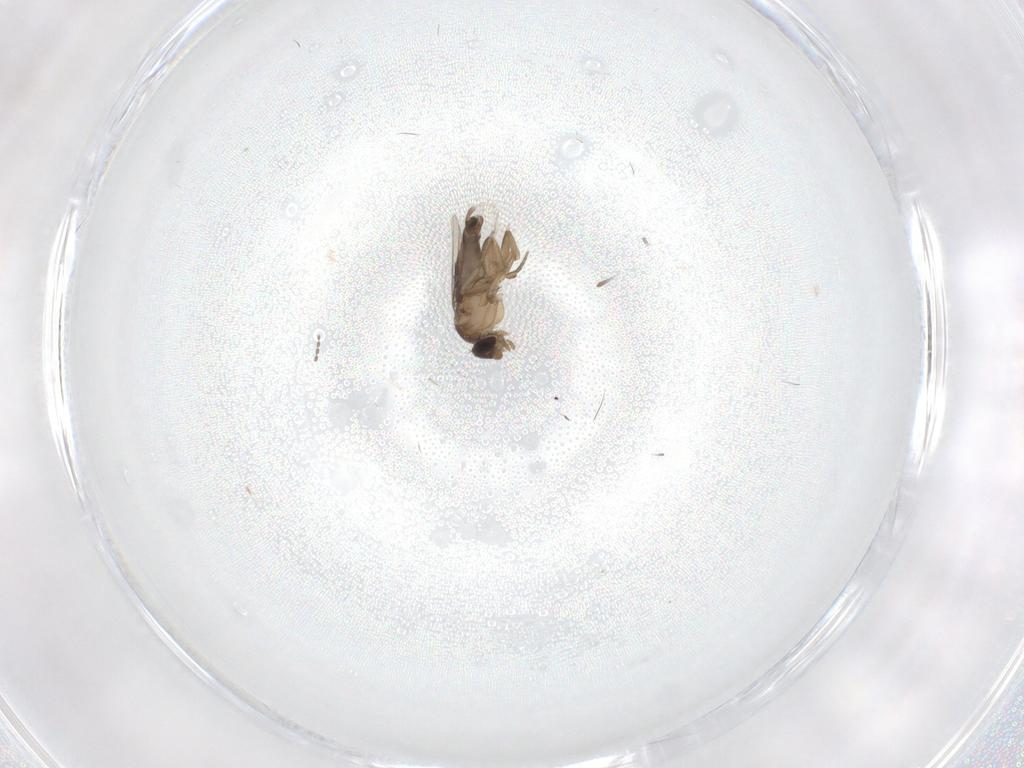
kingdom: Animalia
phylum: Arthropoda
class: Insecta
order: Diptera
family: Phoridae
